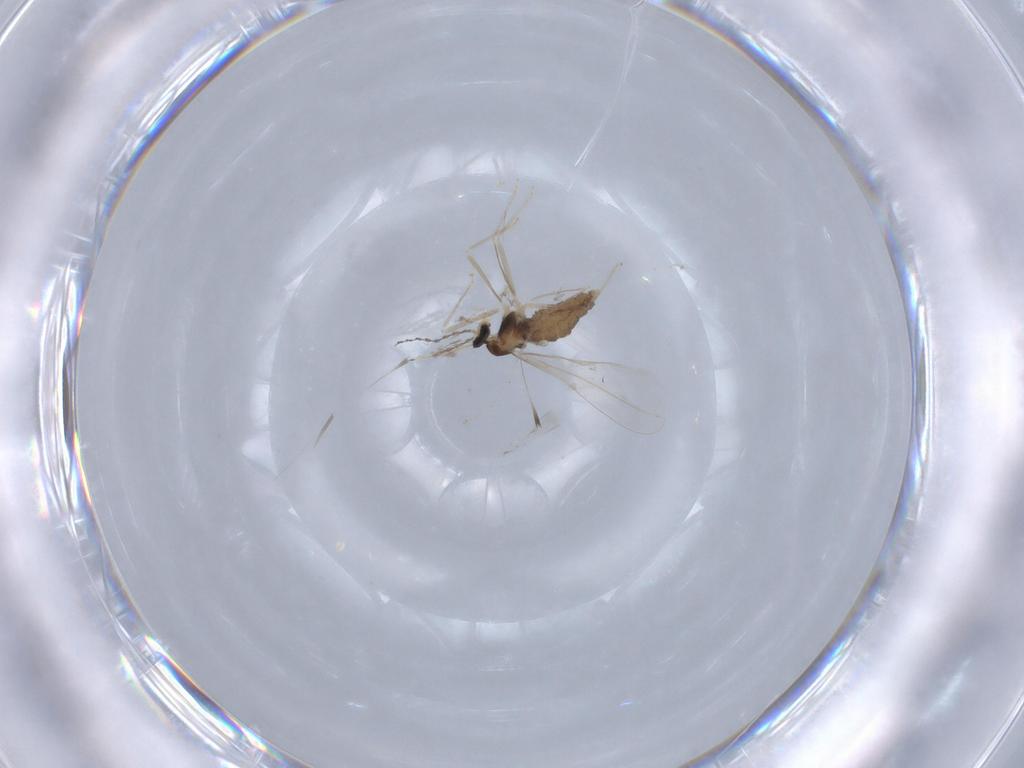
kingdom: Animalia
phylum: Arthropoda
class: Insecta
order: Diptera
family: Cecidomyiidae
